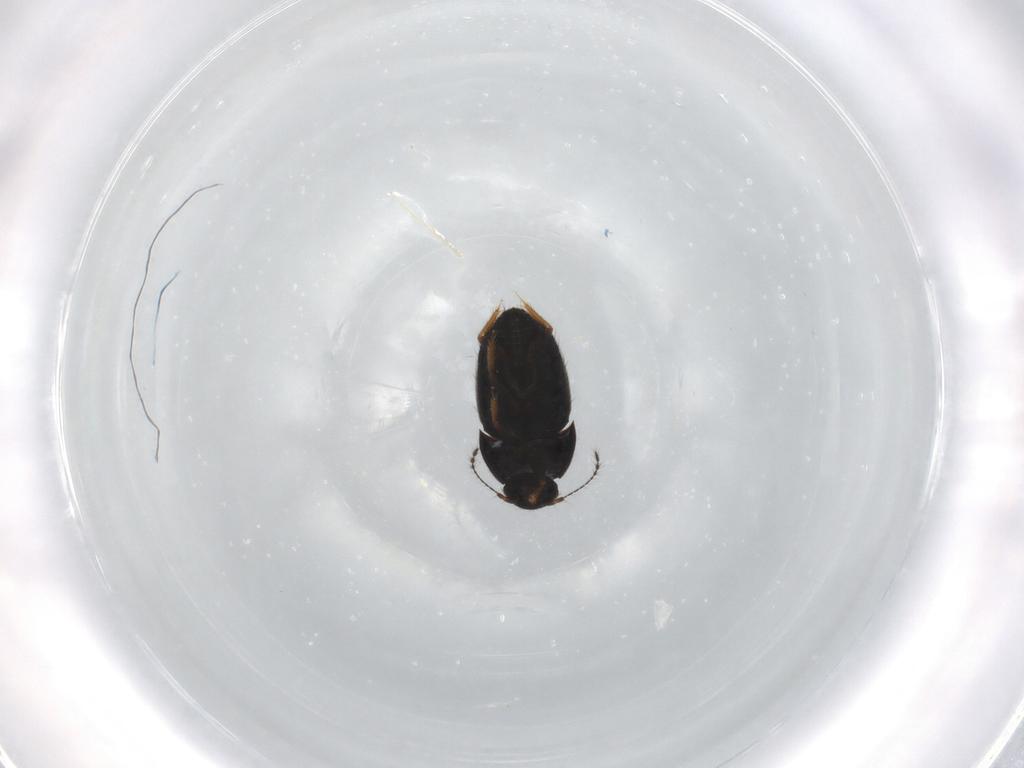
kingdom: Animalia
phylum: Arthropoda
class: Insecta
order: Coleoptera
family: Ptiliidae
